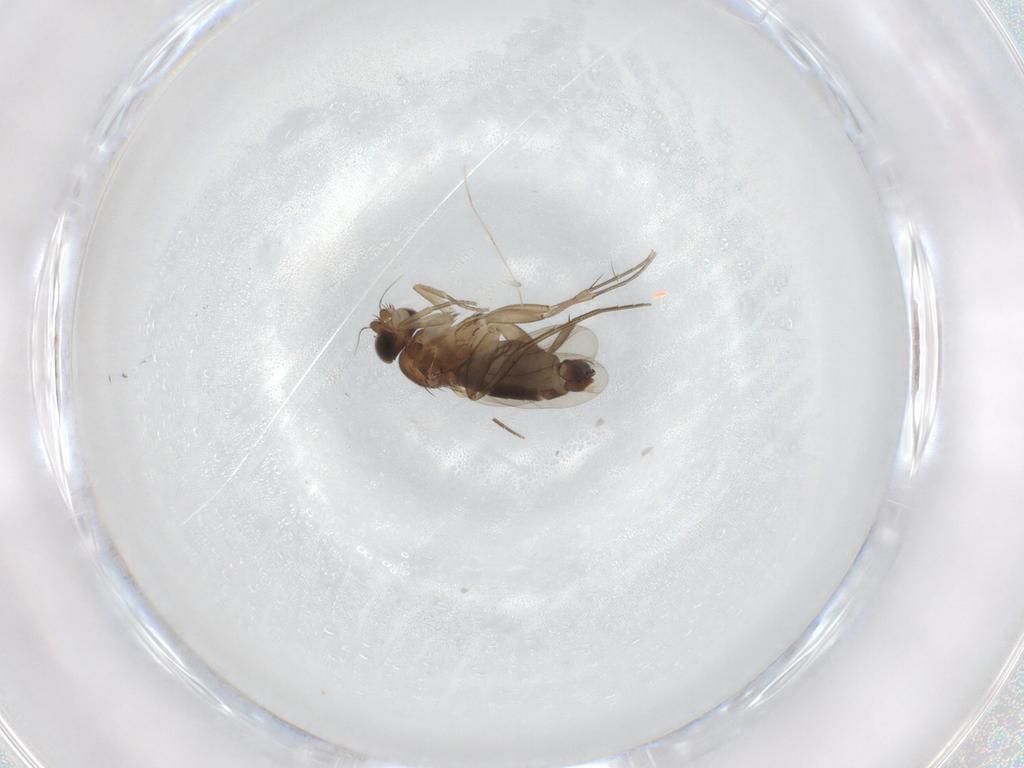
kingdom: Animalia
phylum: Arthropoda
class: Insecta
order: Diptera
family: Phoridae
